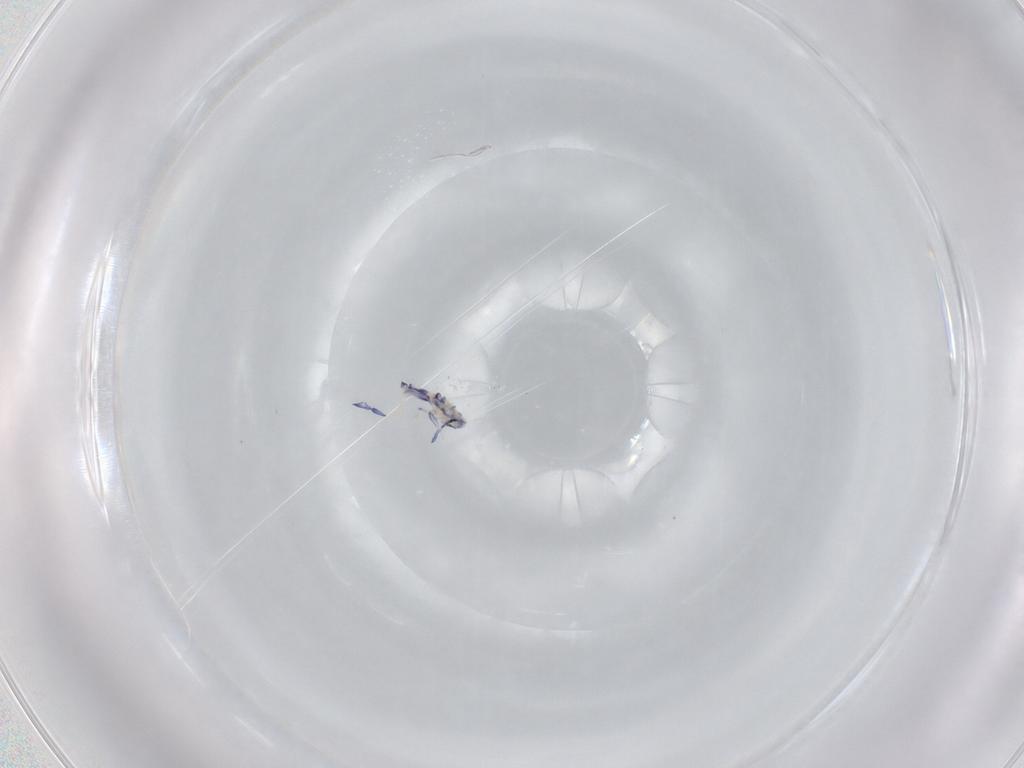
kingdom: Animalia
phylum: Arthropoda
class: Collembola
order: Entomobryomorpha
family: Entomobryidae
